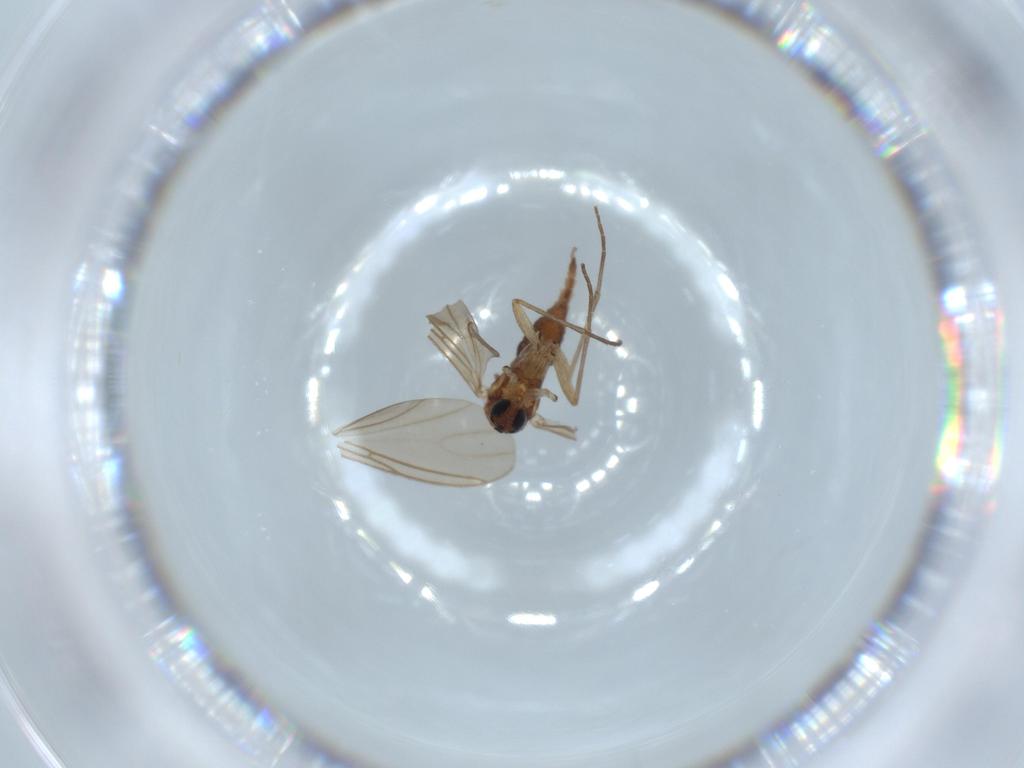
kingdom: Animalia
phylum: Arthropoda
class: Insecta
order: Diptera
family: Sciaridae
